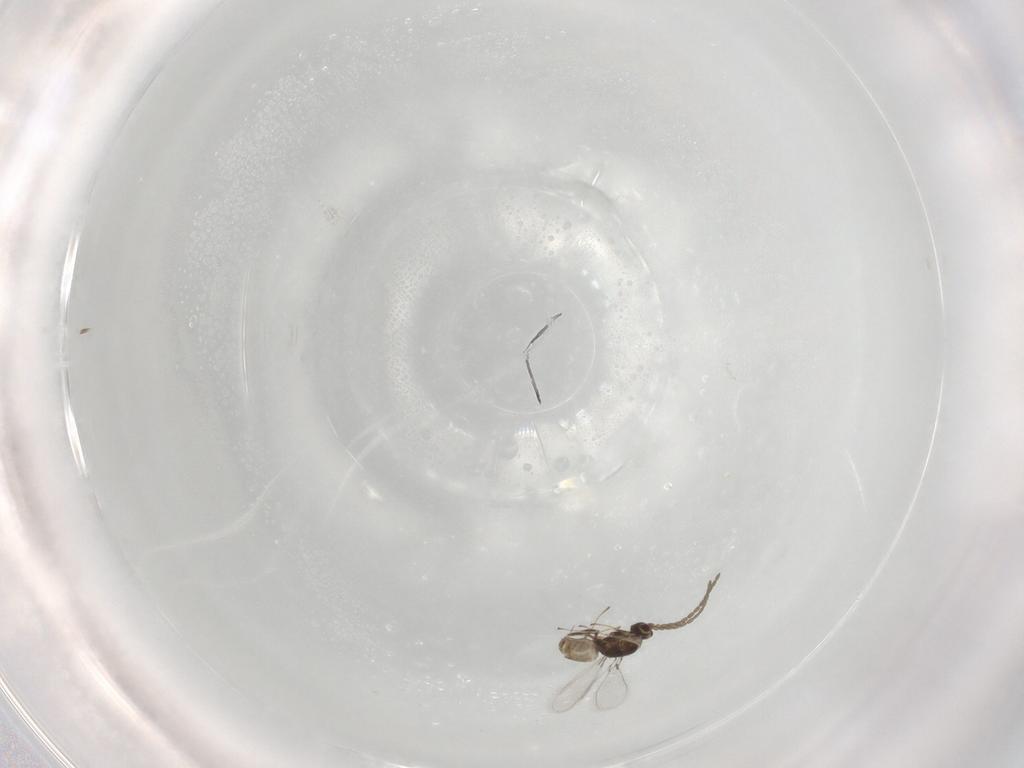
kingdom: Animalia
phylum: Arthropoda
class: Insecta
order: Hymenoptera
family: Mymaridae
